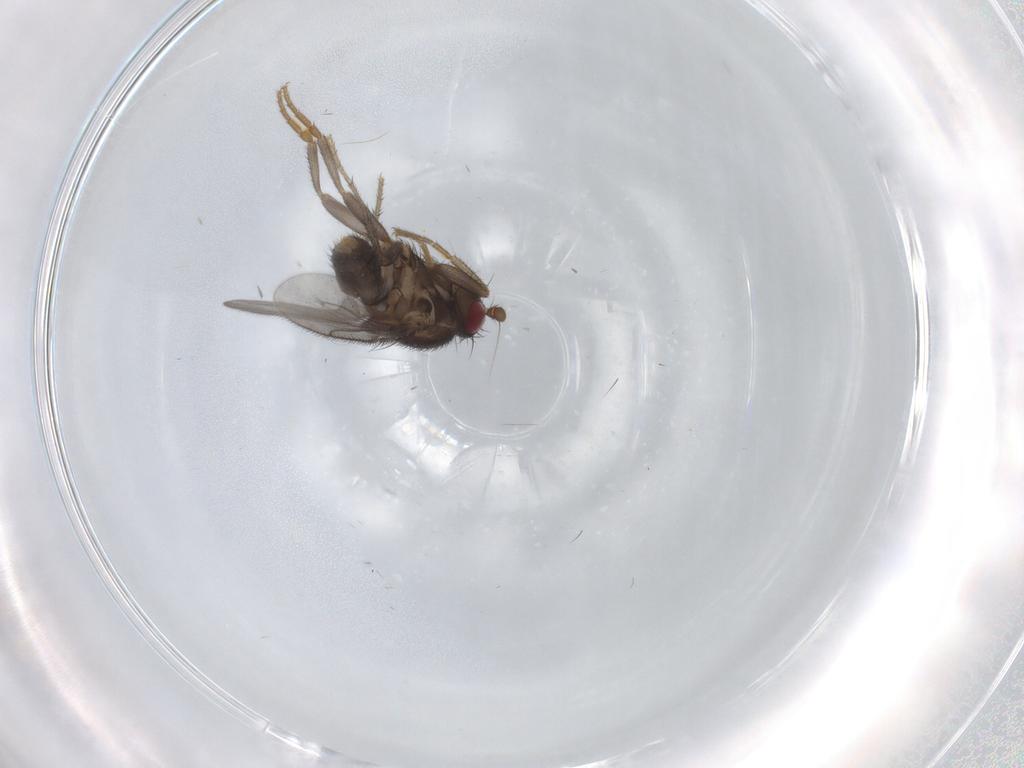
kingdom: Animalia
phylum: Arthropoda
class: Insecta
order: Diptera
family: Sphaeroceridae
